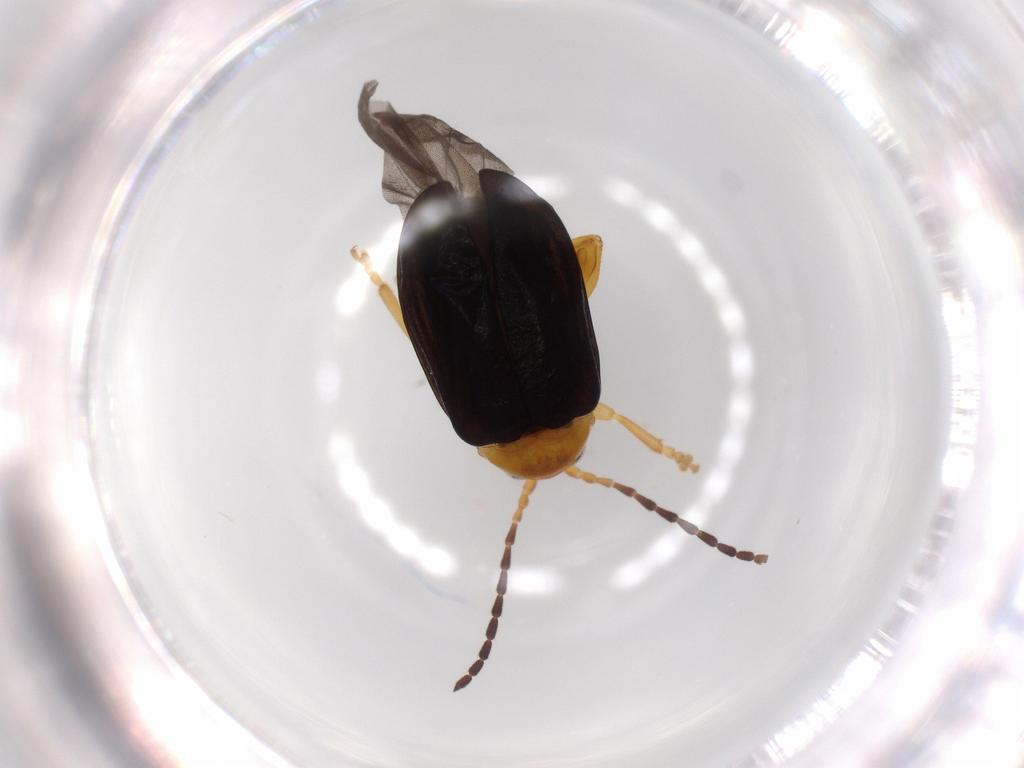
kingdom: Animalia
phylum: Arthropoda
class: Insecta
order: Coleoptera
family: Chrysomelidae
